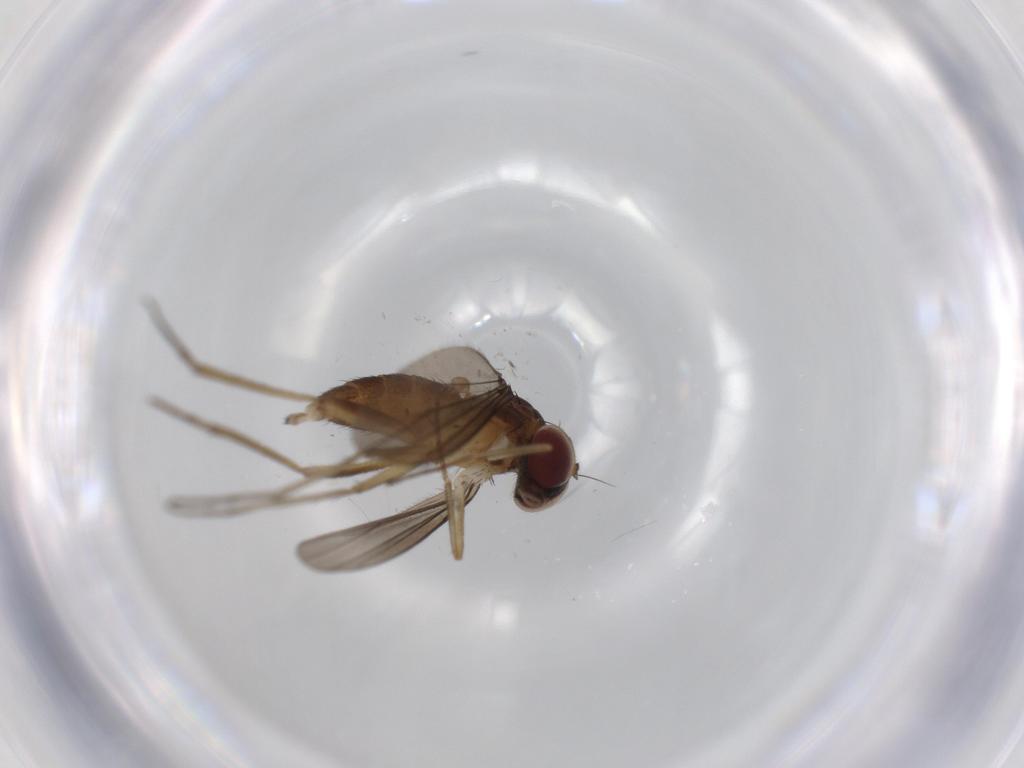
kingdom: Animalia
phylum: Arthropoda
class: Insecta
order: Diptera
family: Dolichopodidae
